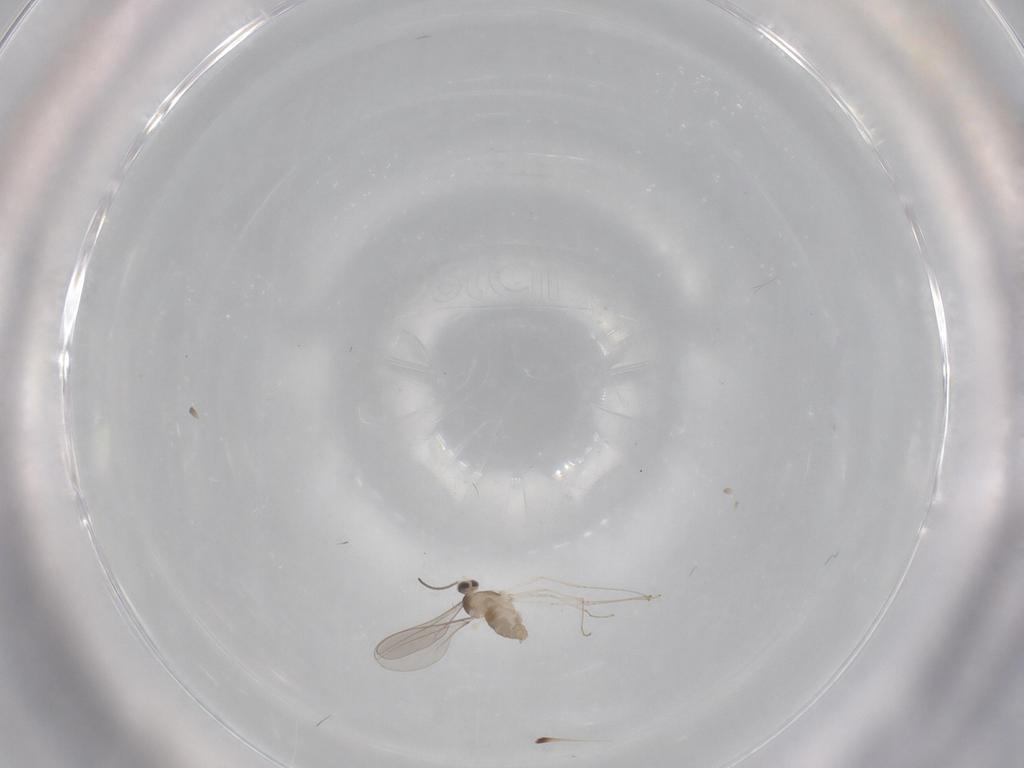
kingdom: Animalia
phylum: Arthropoda
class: Insecta
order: Diptera
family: Cecidomyiidae
